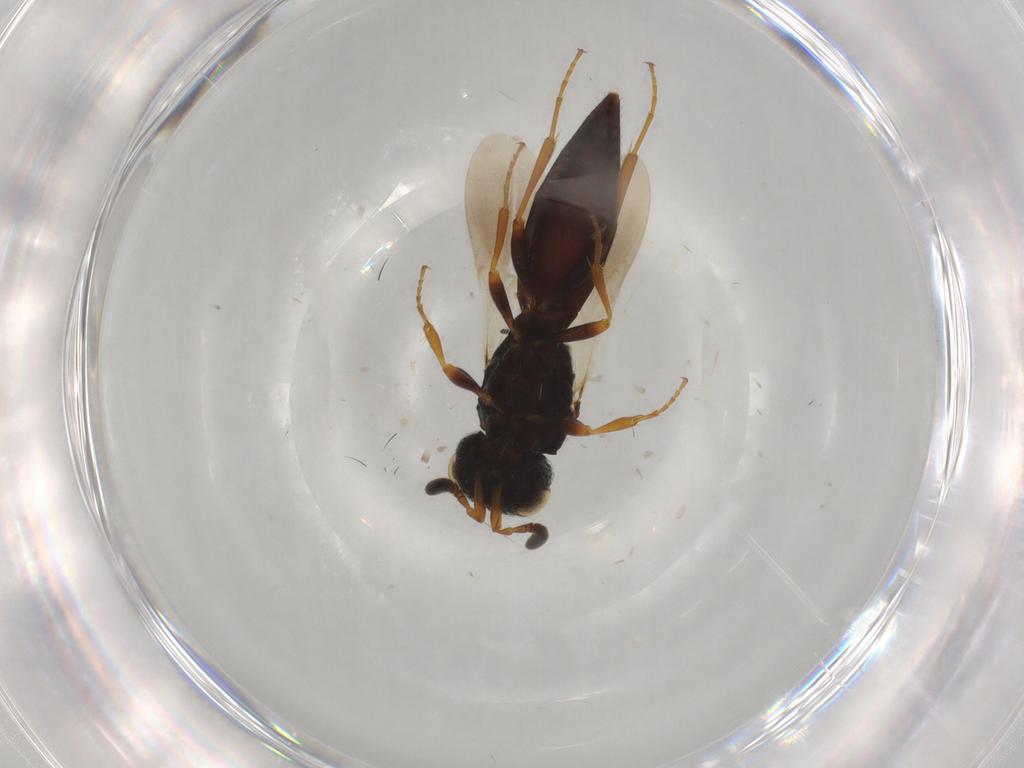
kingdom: Animalia
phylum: Arthropoda
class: Insecta
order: Hymenoptera
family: Scelionidae
